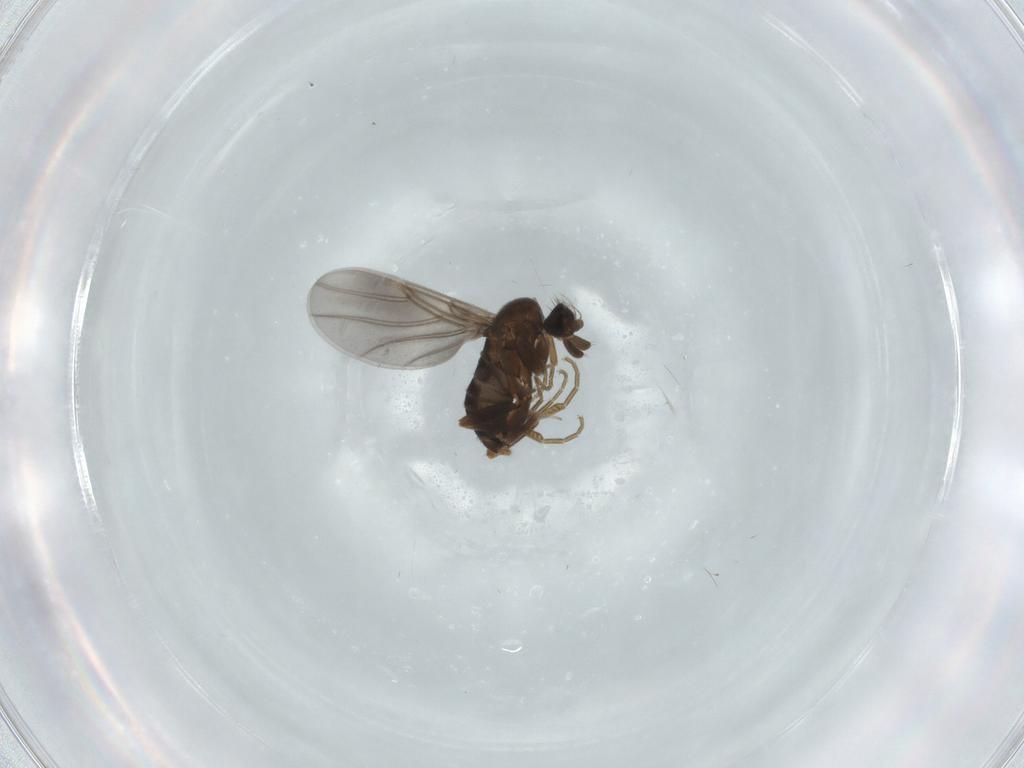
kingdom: Animalia
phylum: Arthropoda
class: Insecta
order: Diptera
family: Phoridae
